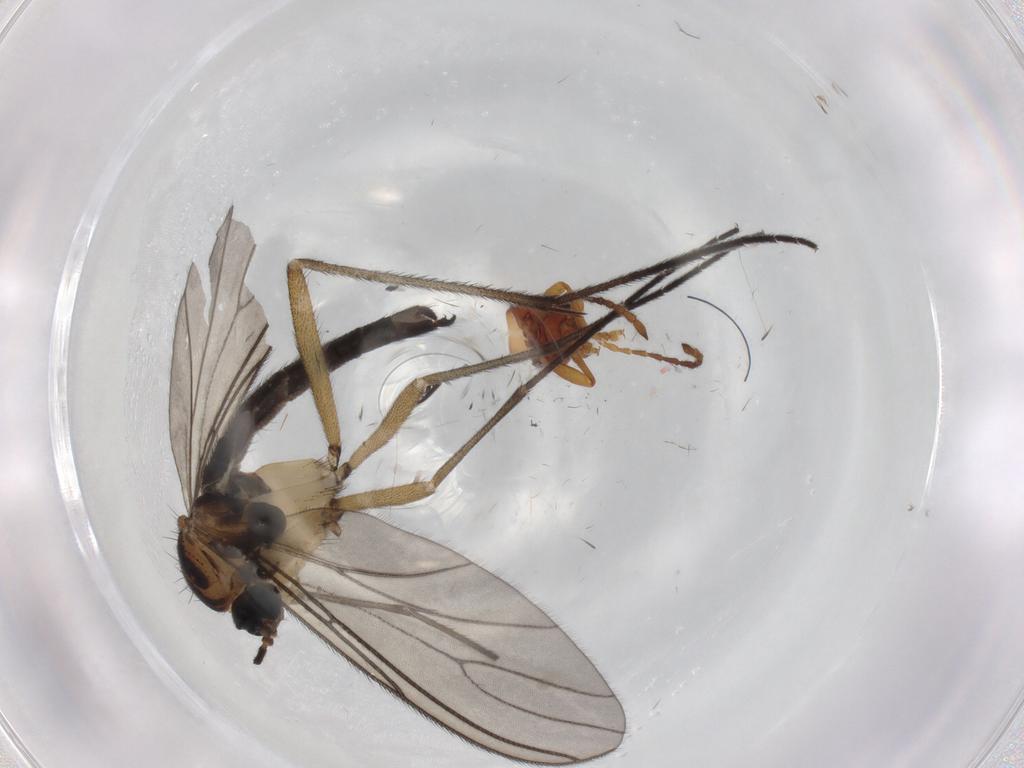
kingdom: Animalia
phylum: Arthropoda
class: Insecta
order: Diptera
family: Sciaridae
